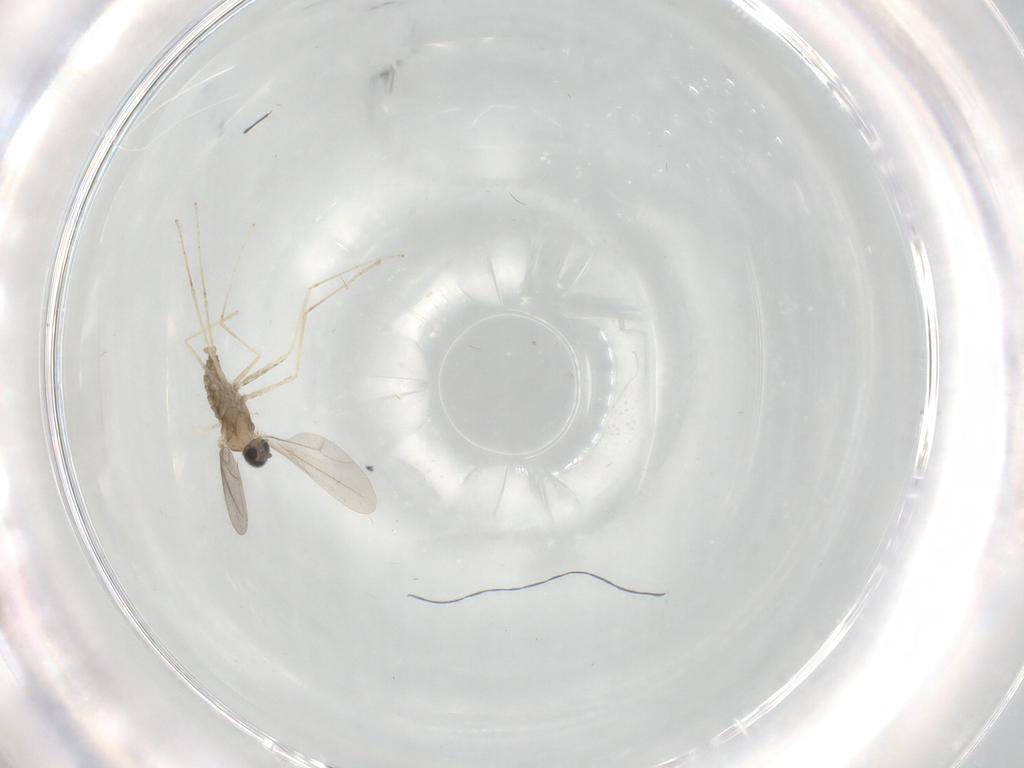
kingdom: Animalia
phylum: Arthropoda
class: Insecta
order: Diptera
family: Cecidomyiidae
